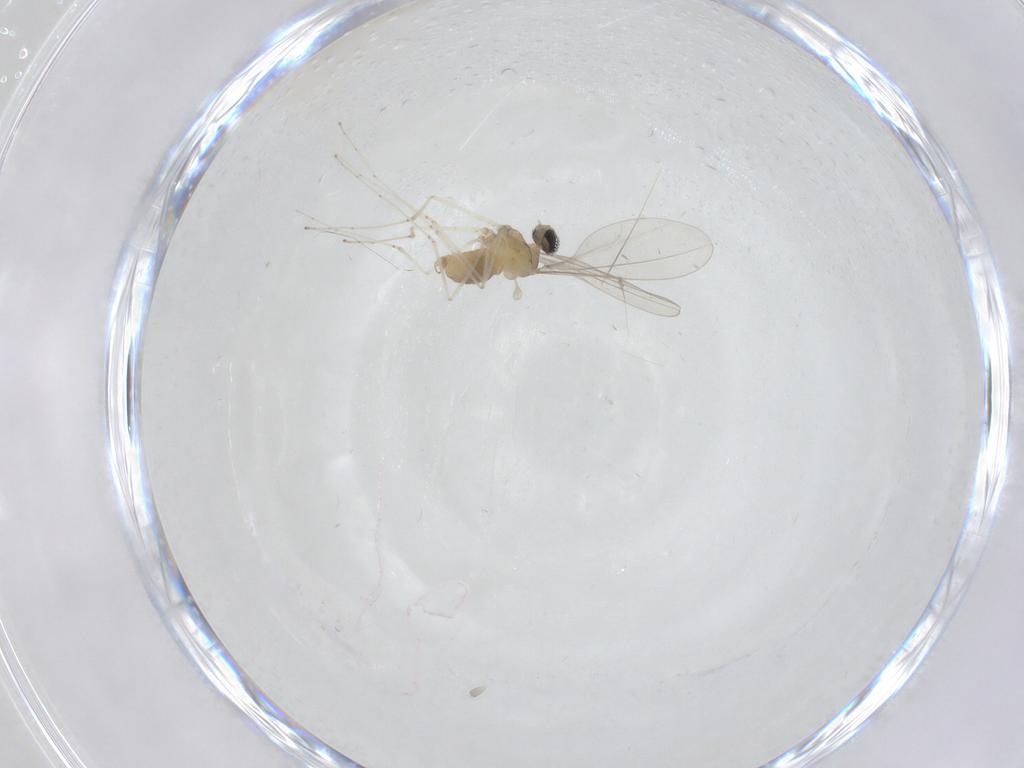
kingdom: Animalia
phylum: Arthropoda
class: Insecta
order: Diptera
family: Cecidomyiidae
